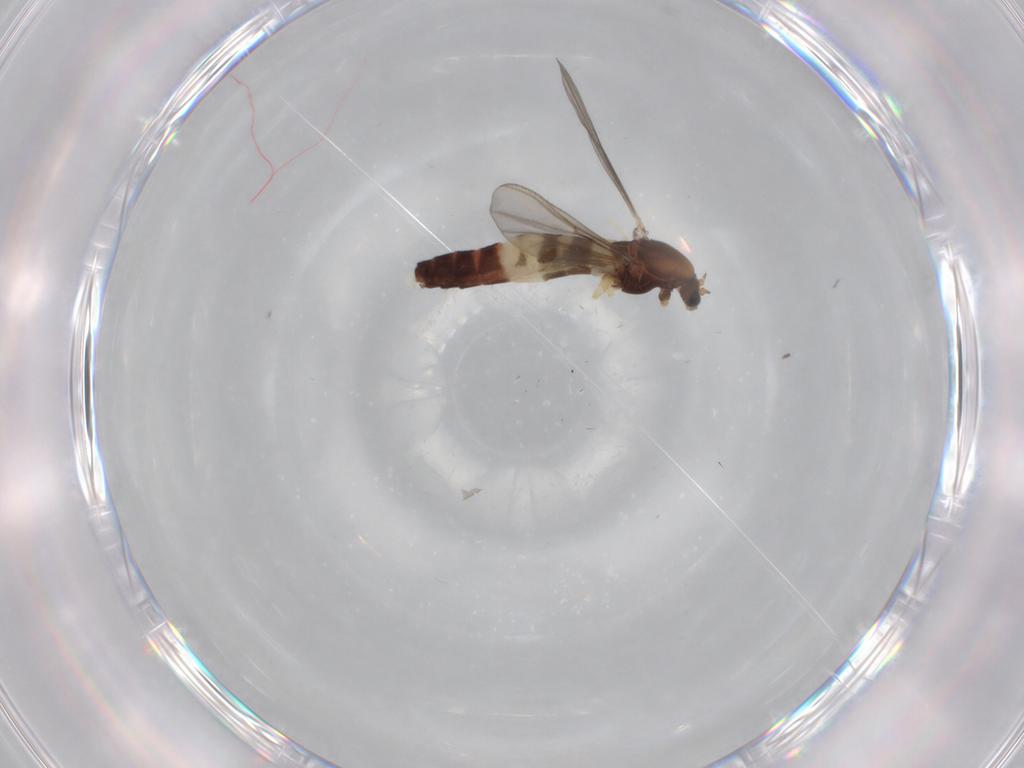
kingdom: Animalia
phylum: Arthropoda
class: Insecta
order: Diptera
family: Chironomidae
